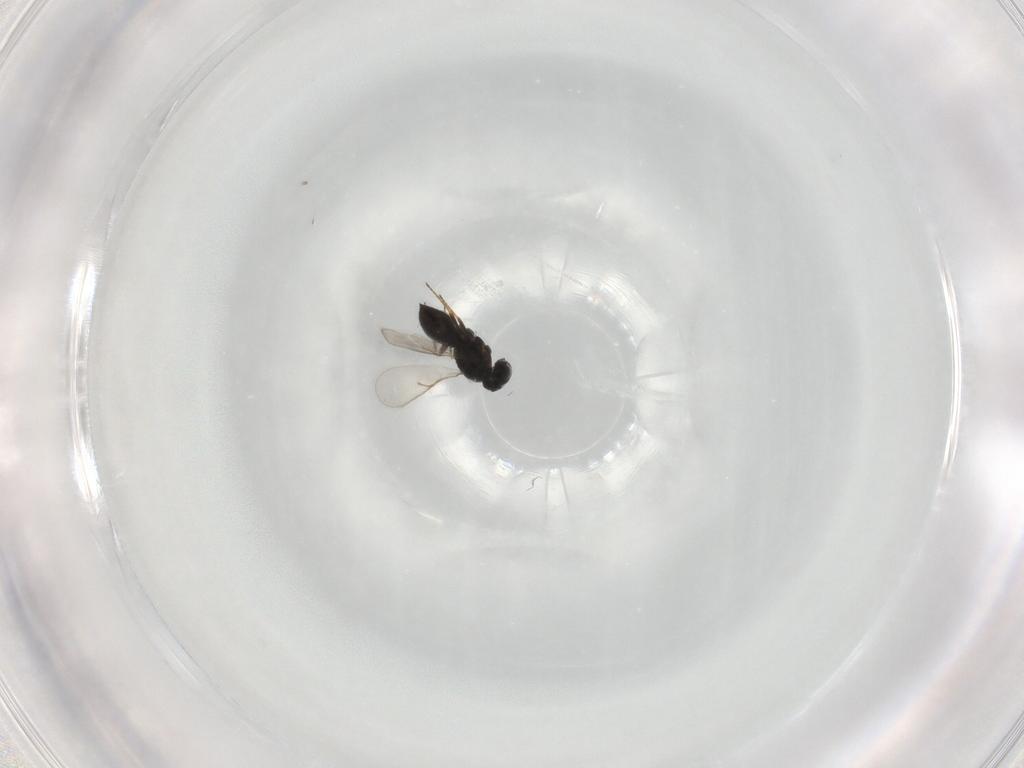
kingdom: Animalia
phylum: Arthropoda
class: Insecta
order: Hymenoptera
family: Scelionidae
